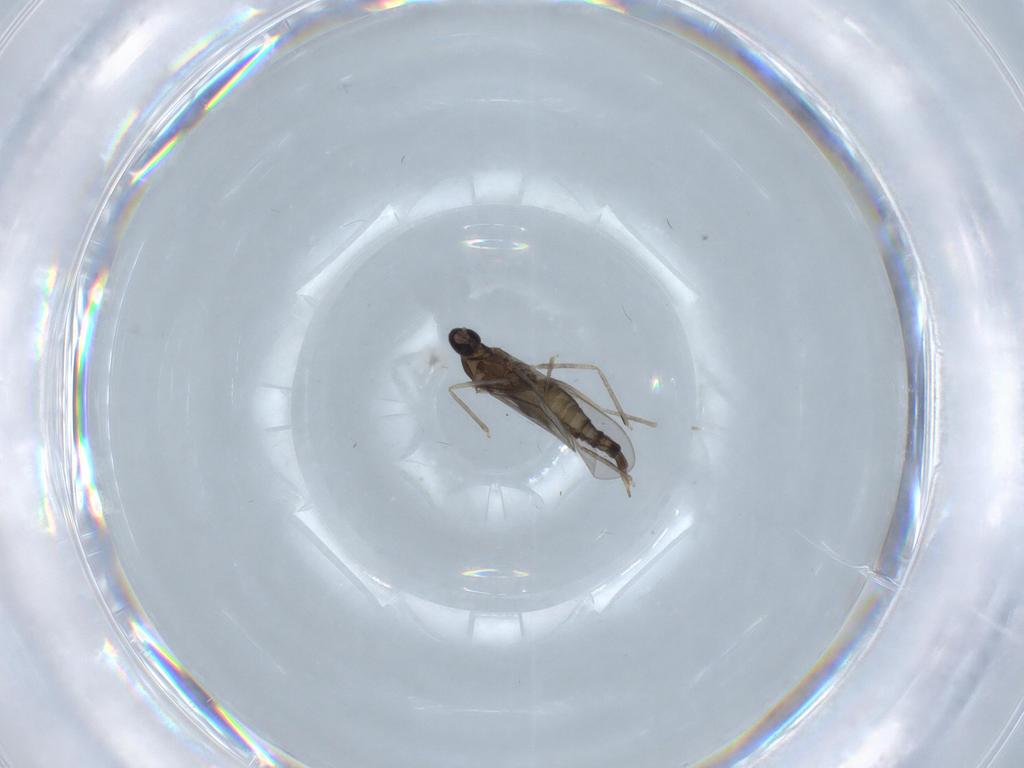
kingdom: Animalia
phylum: Arthropoda
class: Insecta
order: Diptera
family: Cecidomyiidae
